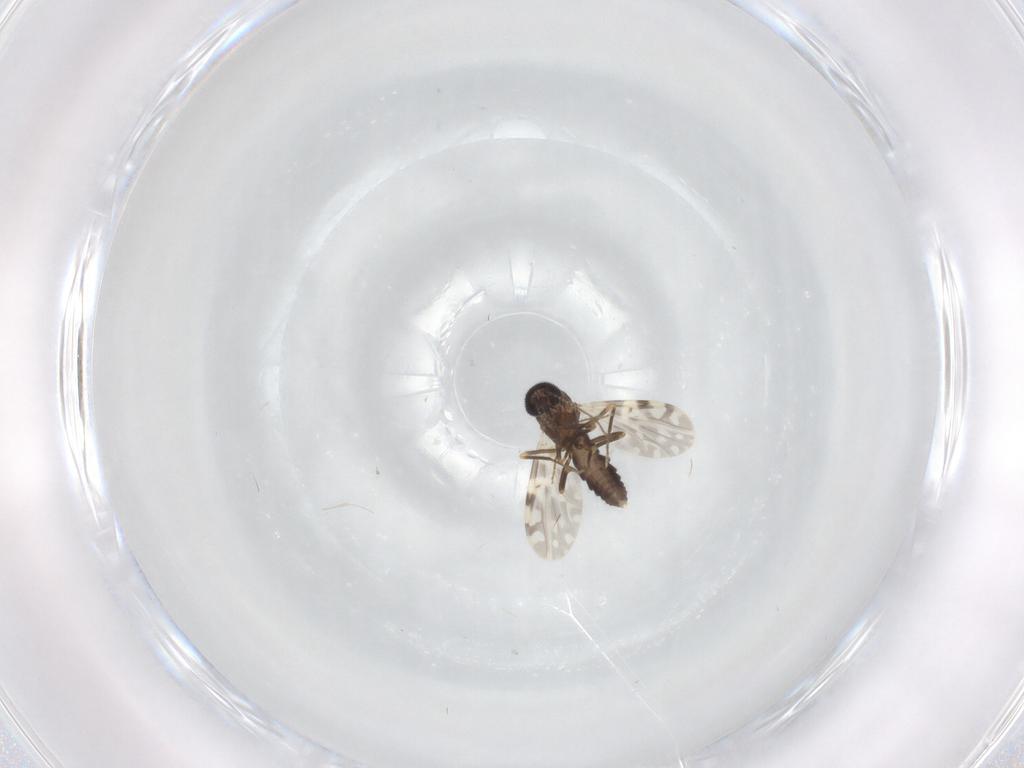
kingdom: Animalia
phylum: Arthropoda
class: Insecta
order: Diptera
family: Ceratopogonidae
